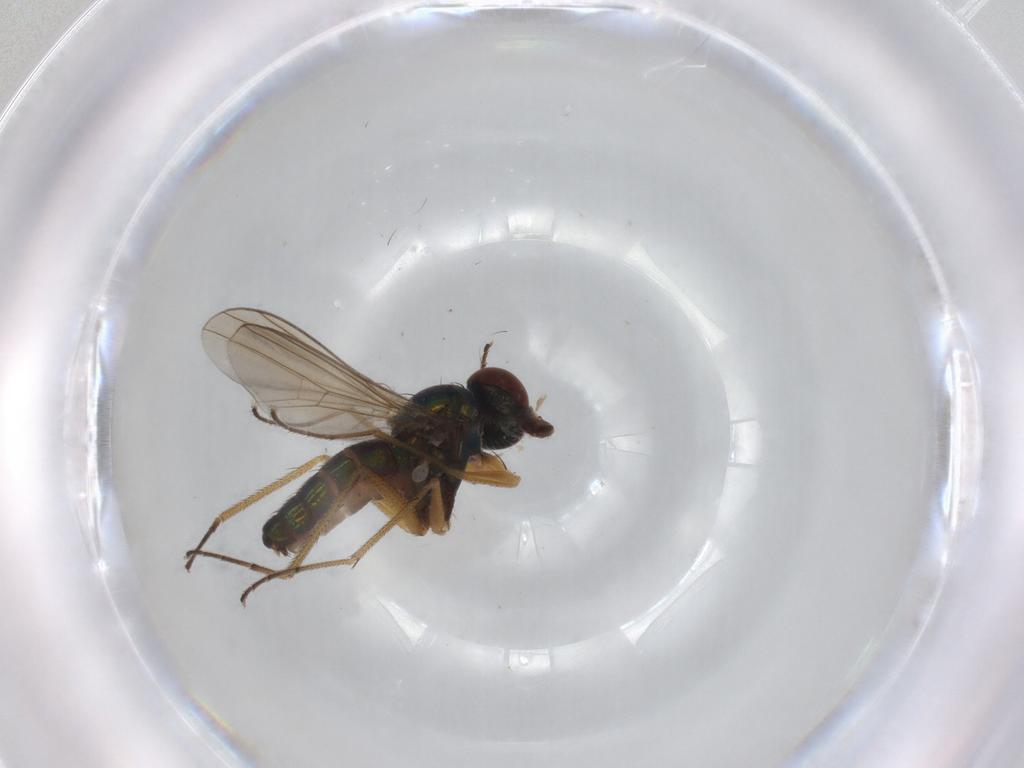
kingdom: Animalia
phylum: Arthropoda
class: Insecta
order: Diptera
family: Dolichopodidae
